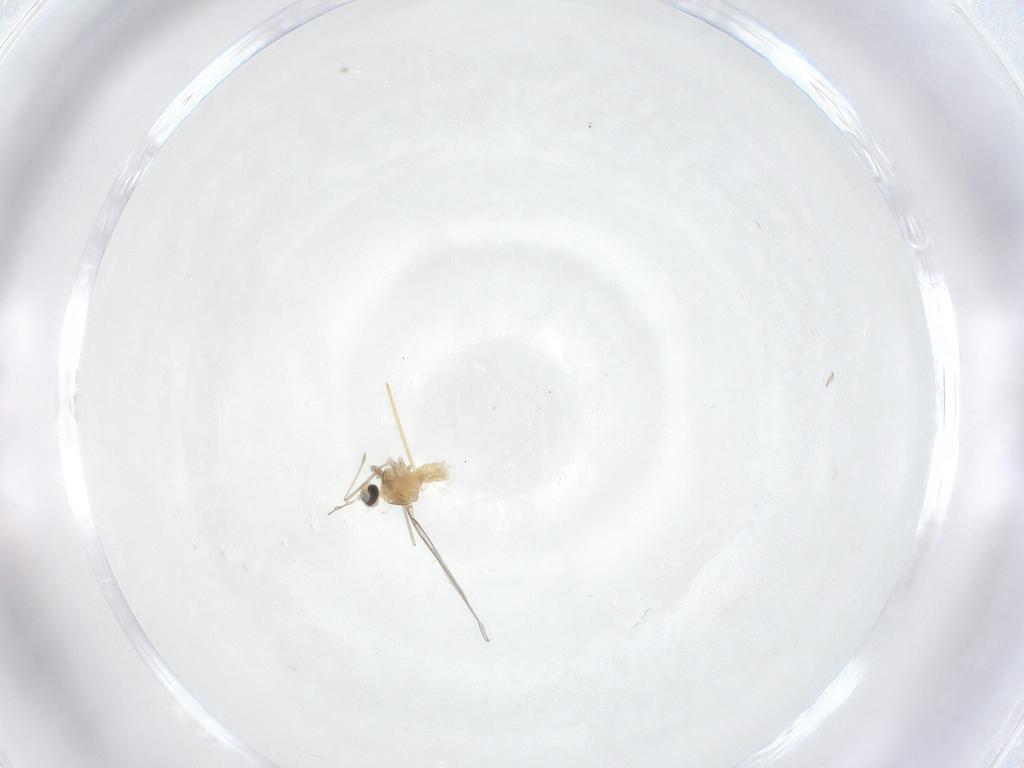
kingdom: Animalia
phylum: Arthropoda
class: Insecta
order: Diptera
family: Cecidomyiidae
